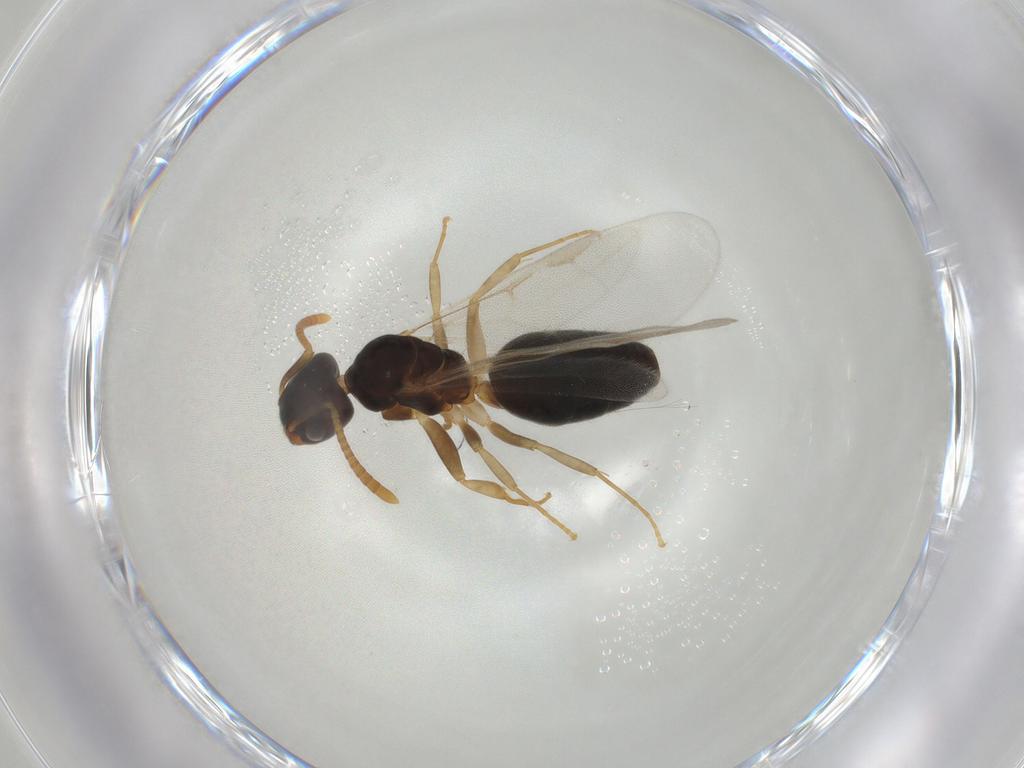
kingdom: Animalia
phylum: Arthropoda
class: Insecta
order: Hymenoptera
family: Formicidae
